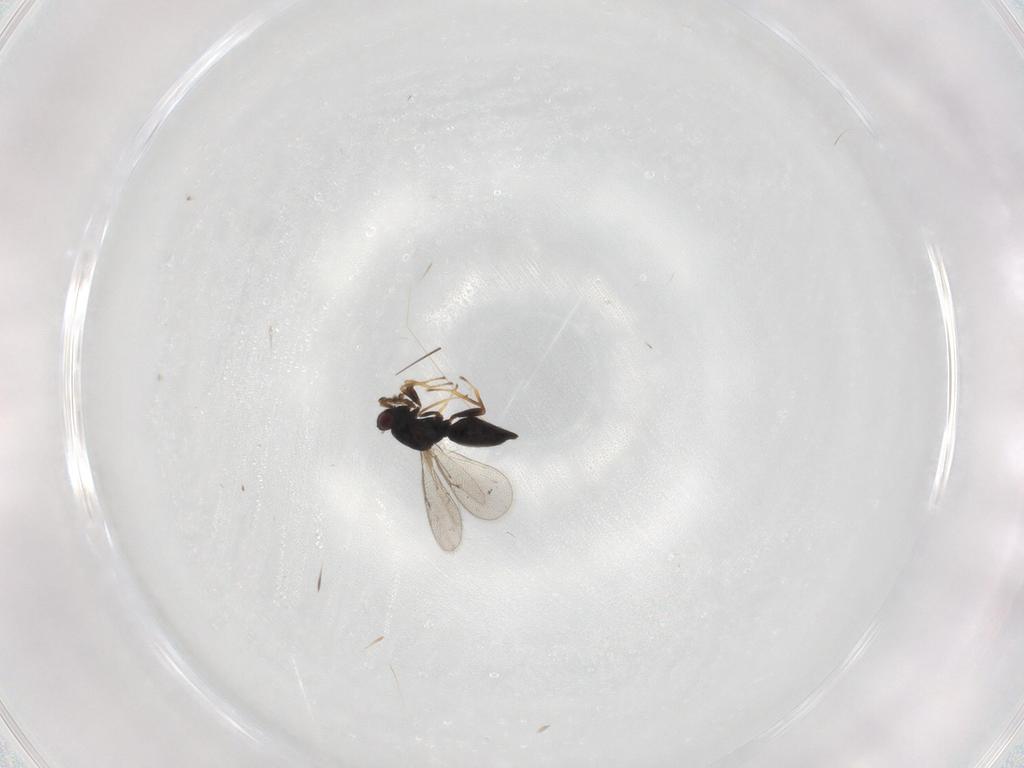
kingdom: Animalia
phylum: Arthropoda
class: Insecta
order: Hymenoptera
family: Eulophidae
